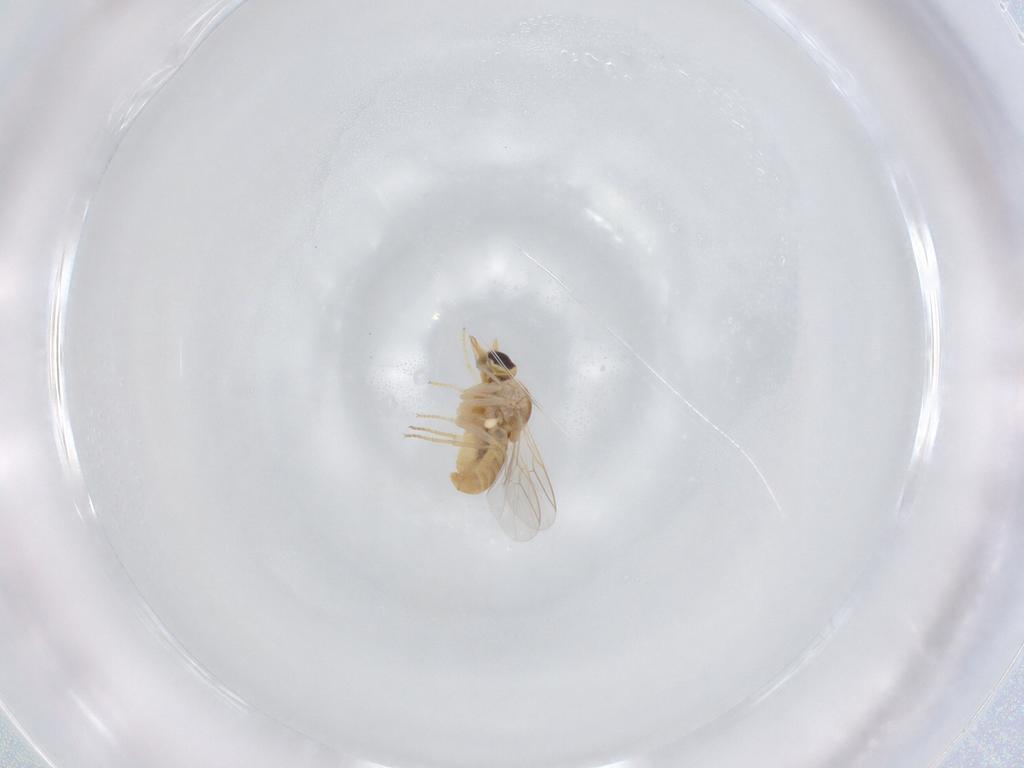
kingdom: Animalia
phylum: Arthropoda
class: Insecta
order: Diptera
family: Mythicomyiidae
